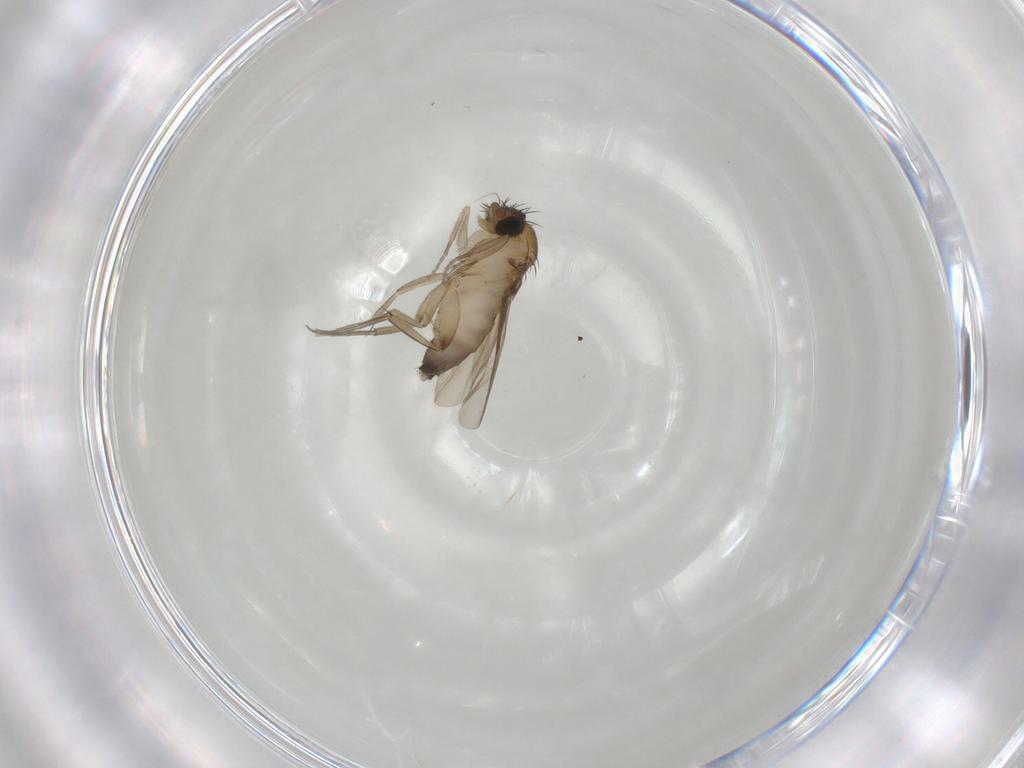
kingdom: Animalia
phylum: Arthropoda
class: Insecta
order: Diptera
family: Phoridae
